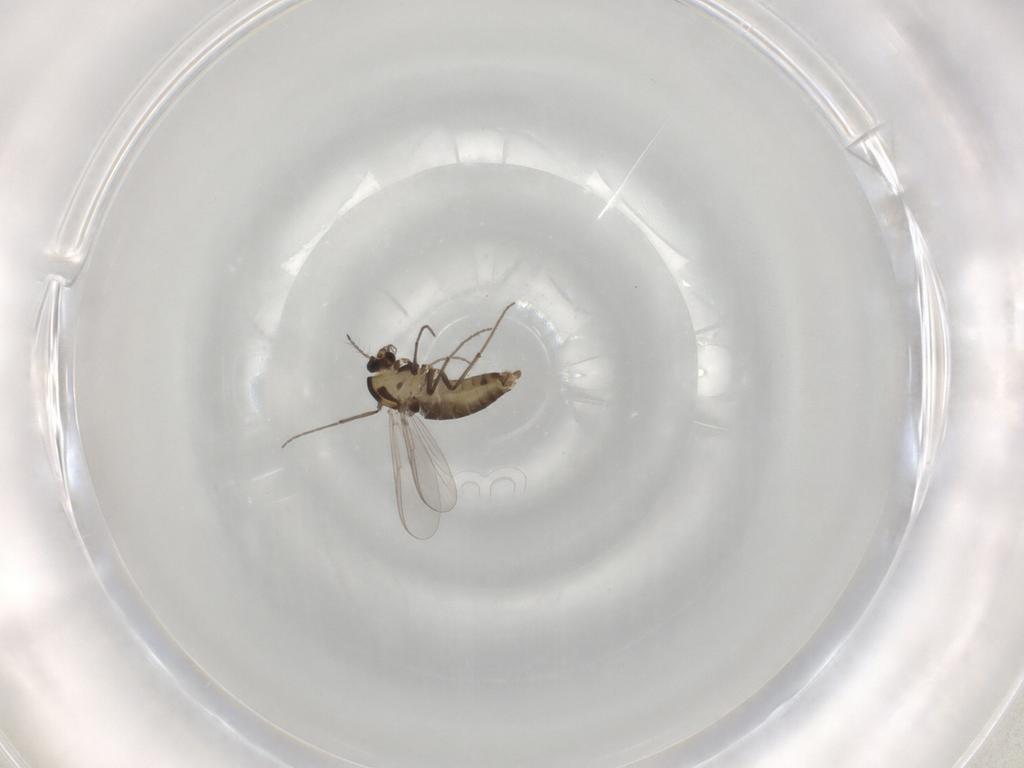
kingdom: Animalia
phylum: Arthropoda
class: Insecta
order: Diptera
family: Chironomidae
